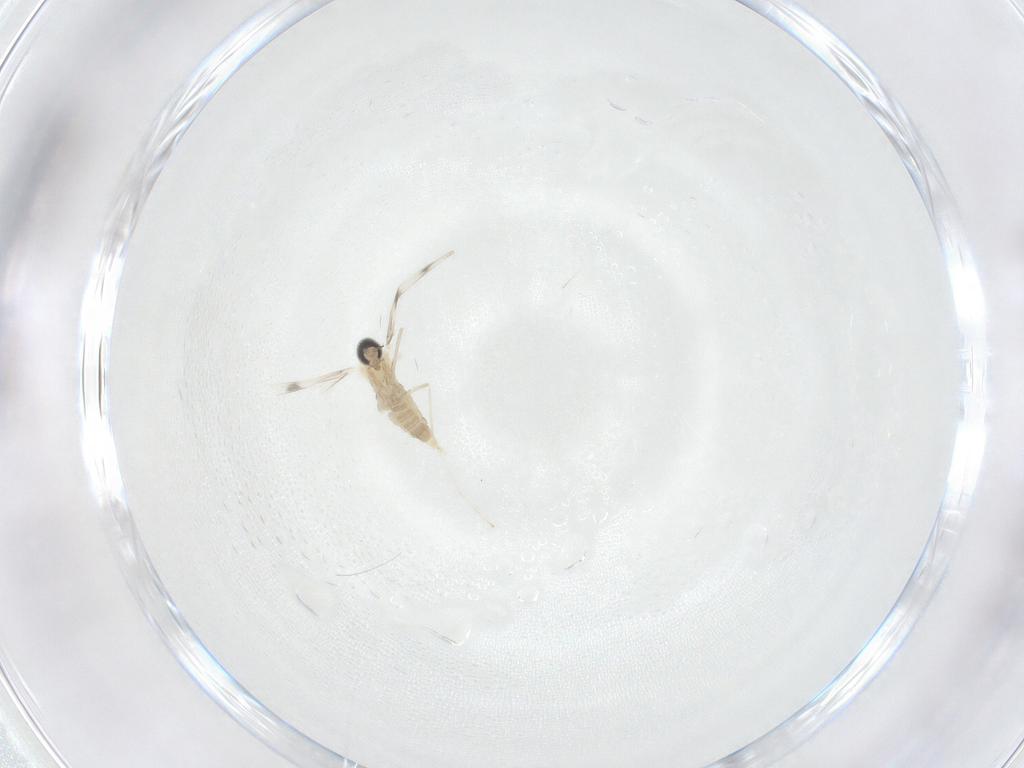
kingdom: Animalia
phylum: Arthropoda
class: Insecta
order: Diptera
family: Cecidomyiidae
